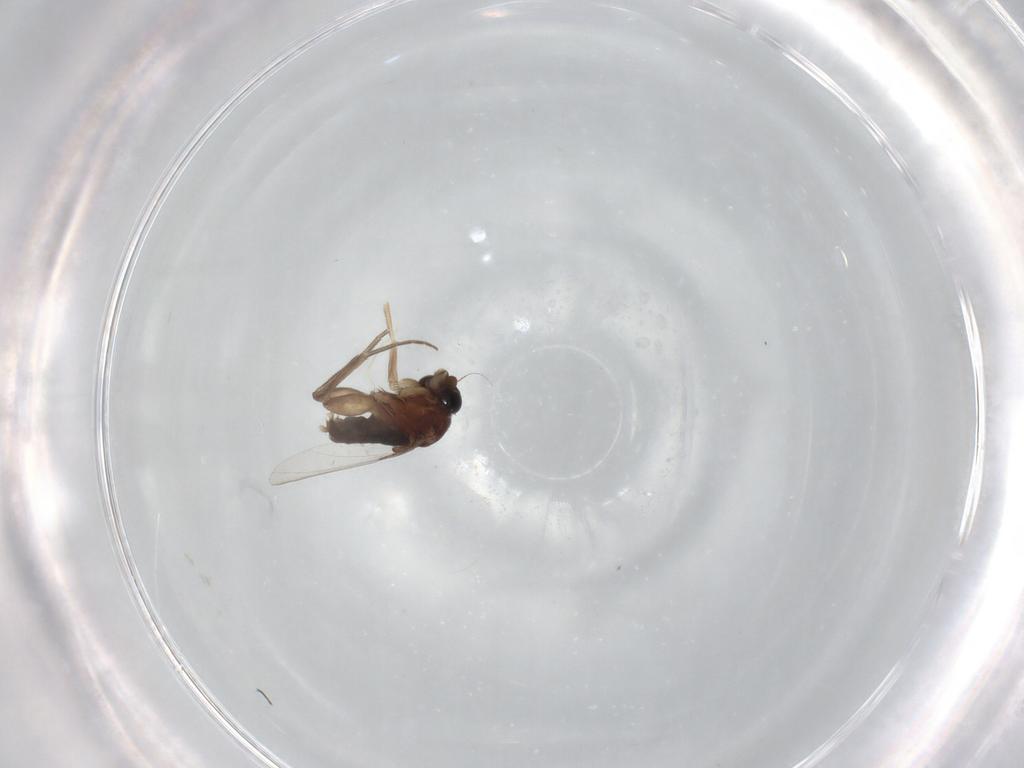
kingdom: Animalia
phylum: Arthropoda
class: Insecta
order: Diptera
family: Phoridae
